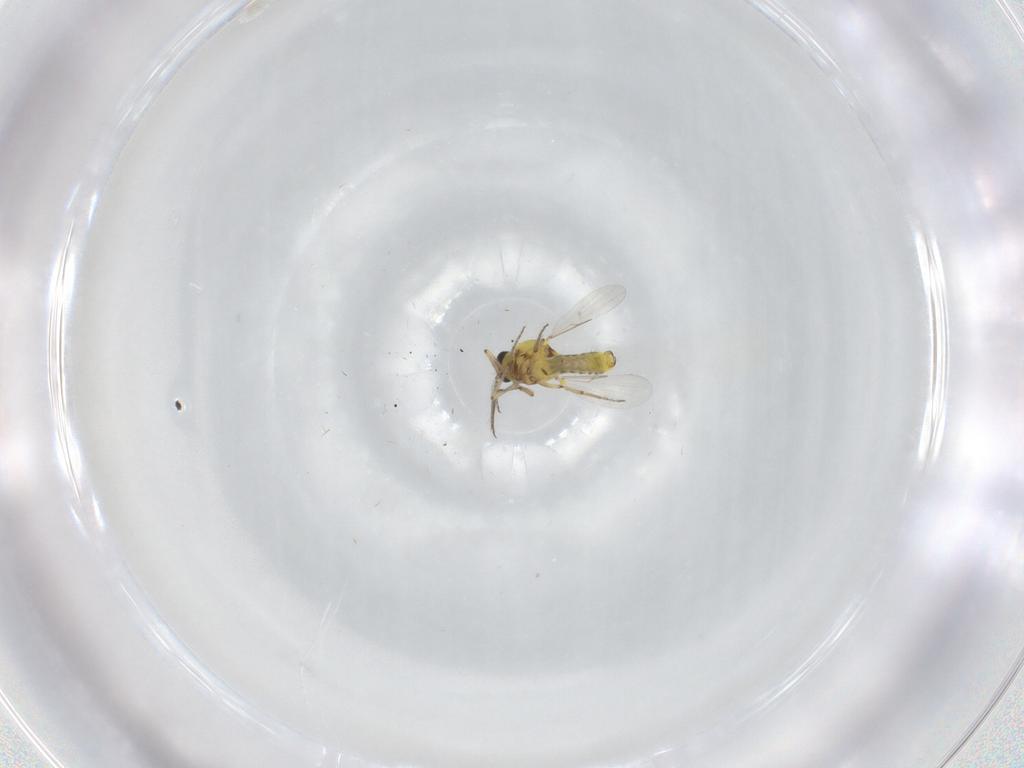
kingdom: Animalia
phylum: Arthropoda
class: Insecta
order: Diptera
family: Ceratopogonidae
